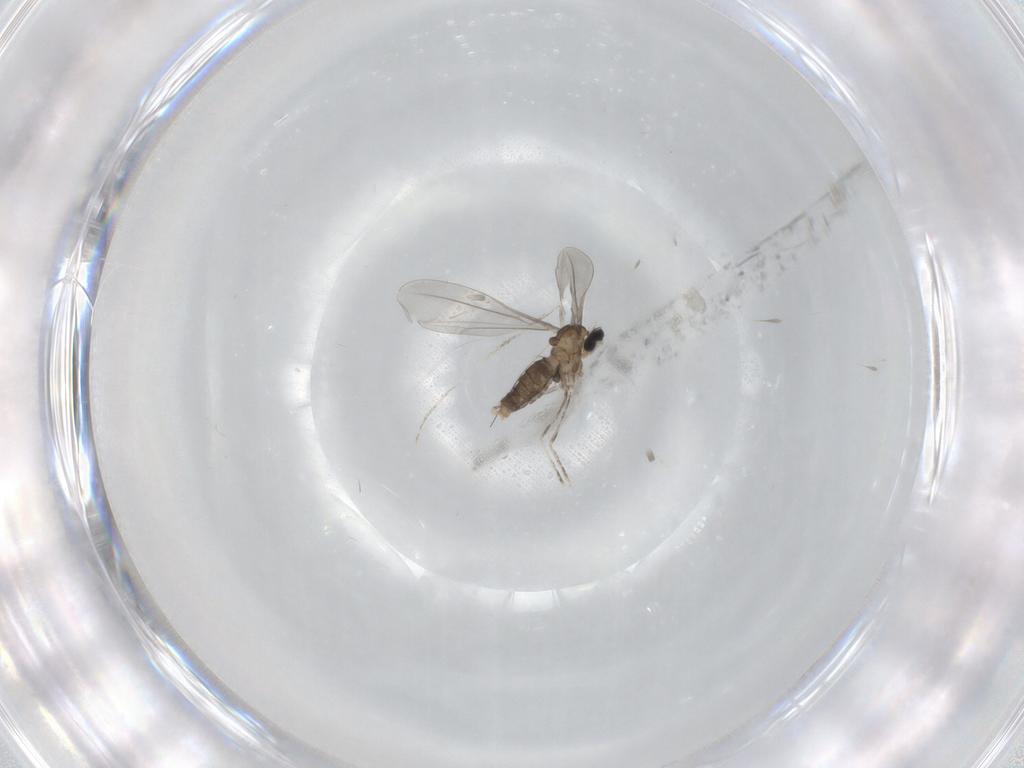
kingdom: Animalia
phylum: Arthropoda
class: Insecta
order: Diptera
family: Cecidomyiidae
